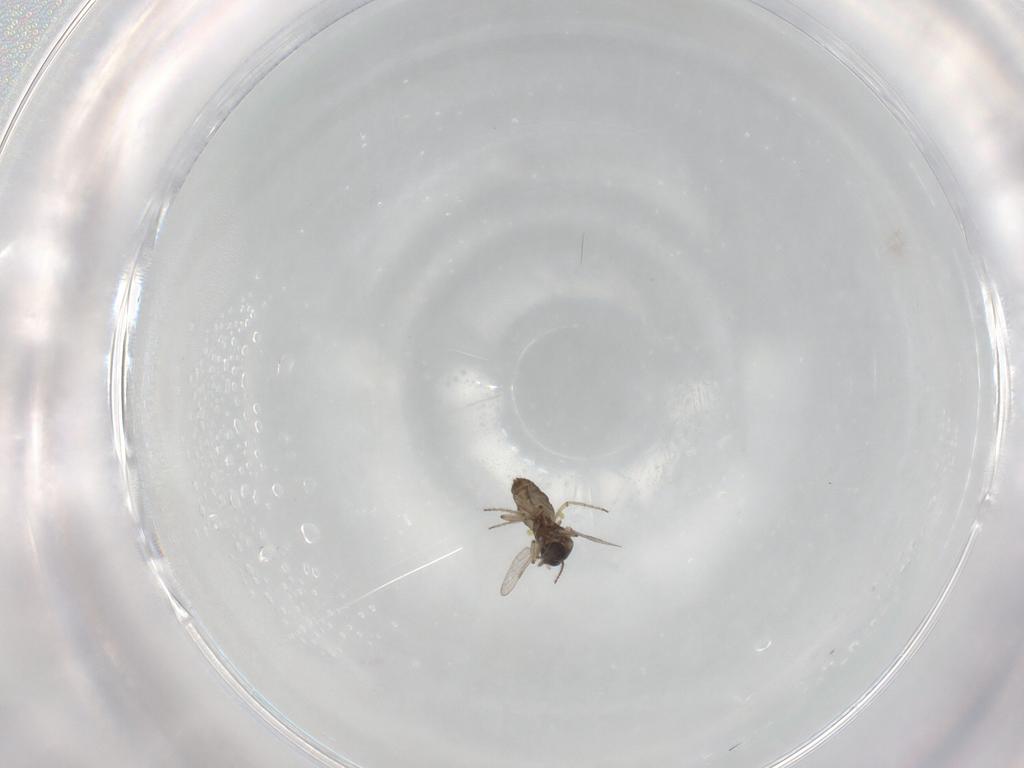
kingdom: Animalia
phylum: Arthropoda
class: Insecta
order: Diptera
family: Ceratopogonidae
